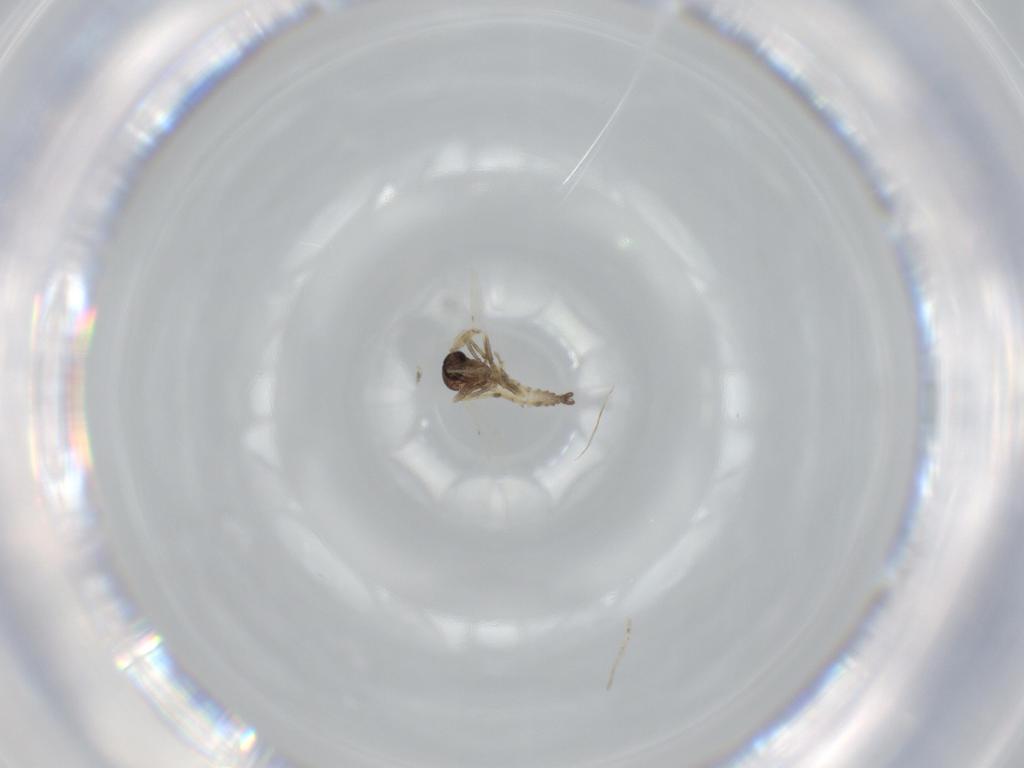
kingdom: Animalia
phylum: Arthropoda
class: Insecta
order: Diptera
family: Ceratopogonidae
